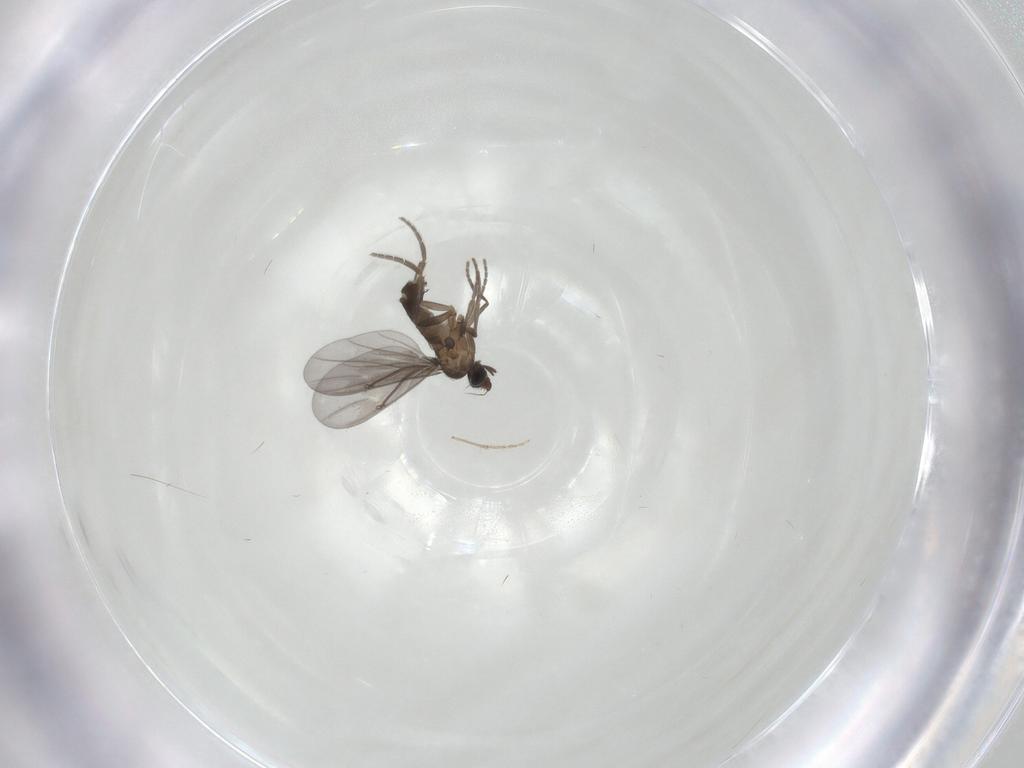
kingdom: Animalia
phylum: Arthropoda
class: Insecta
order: Diptera
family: Phoridae
